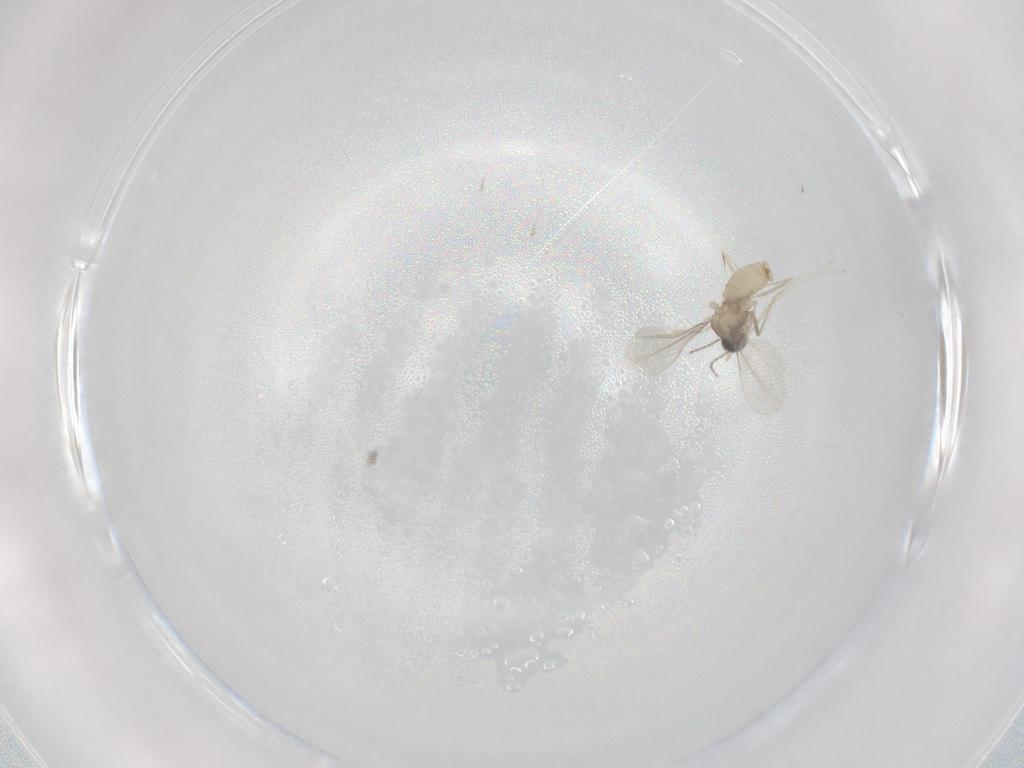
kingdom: Animalia
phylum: Arthropoda
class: Insecta
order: Diptera
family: Cecidomyiidae
